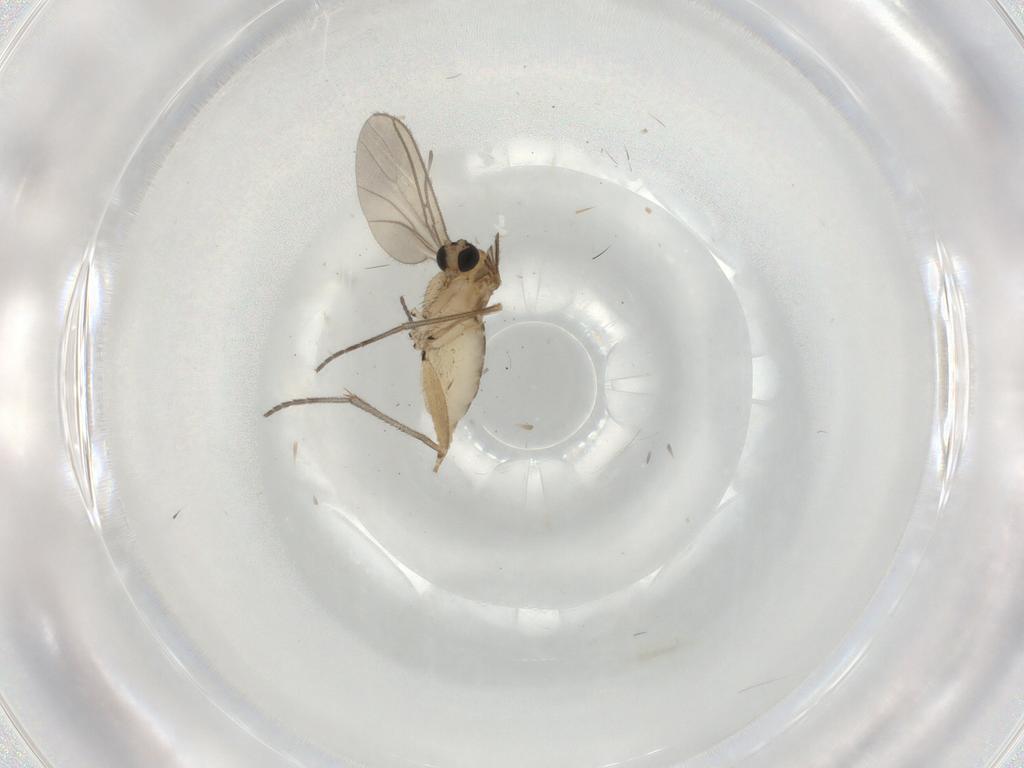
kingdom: Animalia
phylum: Arthropoda
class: Insecta
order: Diptera
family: Sciaridae
